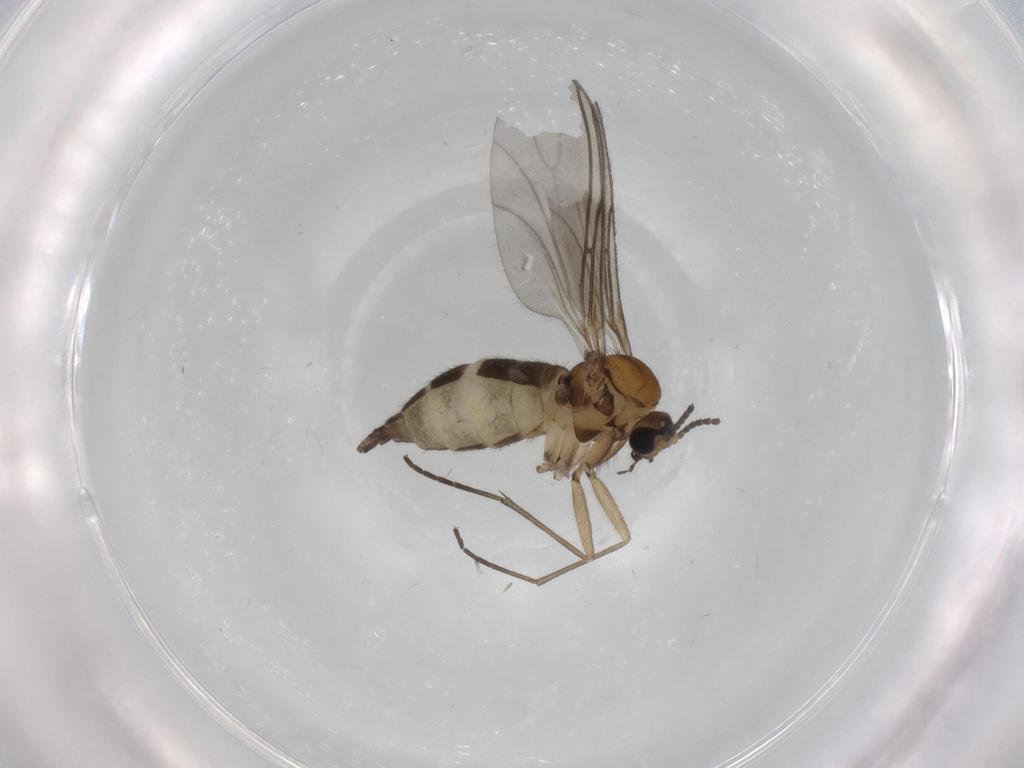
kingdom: Animalia
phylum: Arthropoda
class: Insecta
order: Diptera
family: Sciaridae
